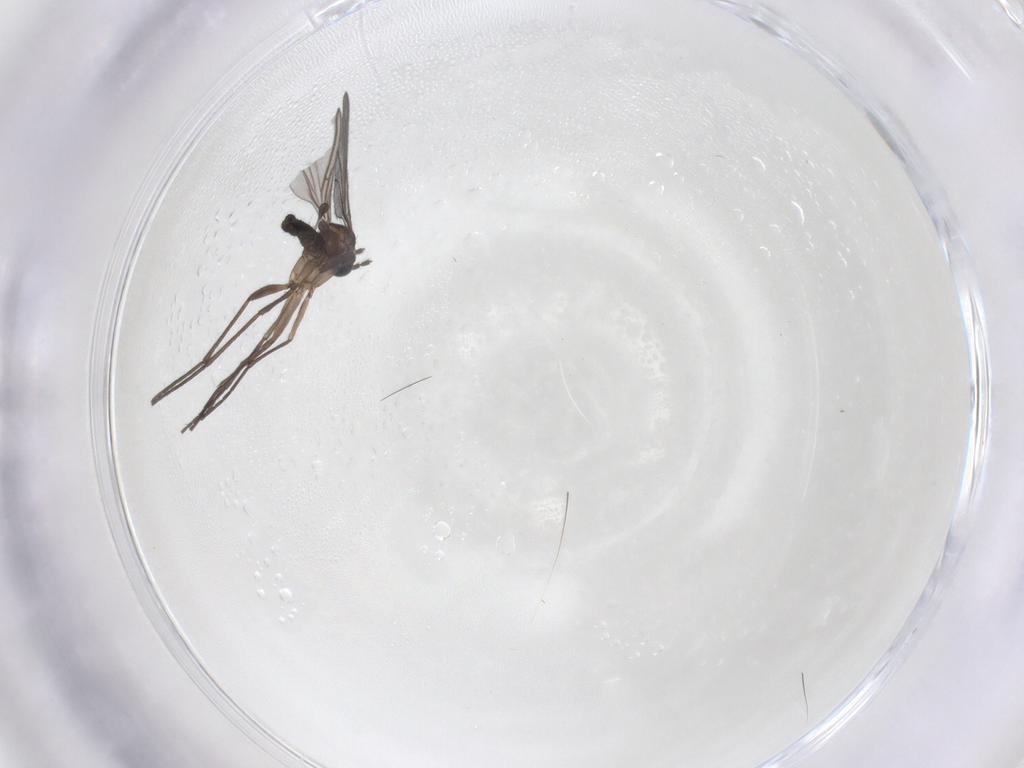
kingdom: Animalia
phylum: Arthropoda
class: Insecta
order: Diptera
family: Sciaridae
